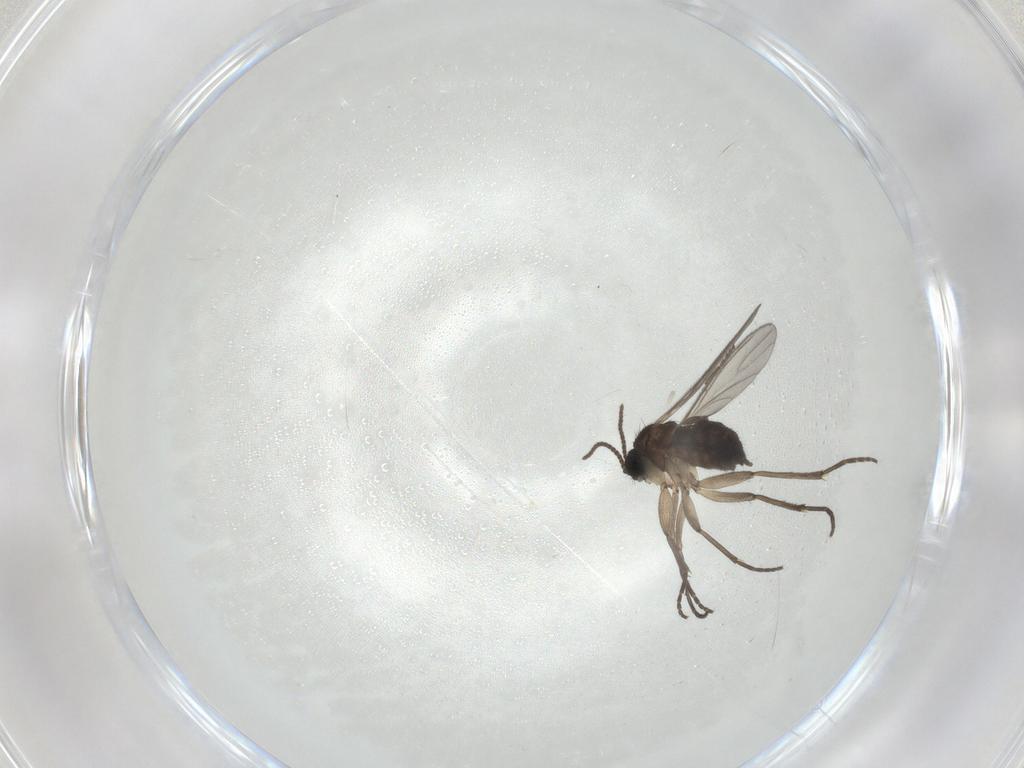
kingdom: Animalia
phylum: Arthropoda
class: Insecta
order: Diptera
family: Sciaridae
